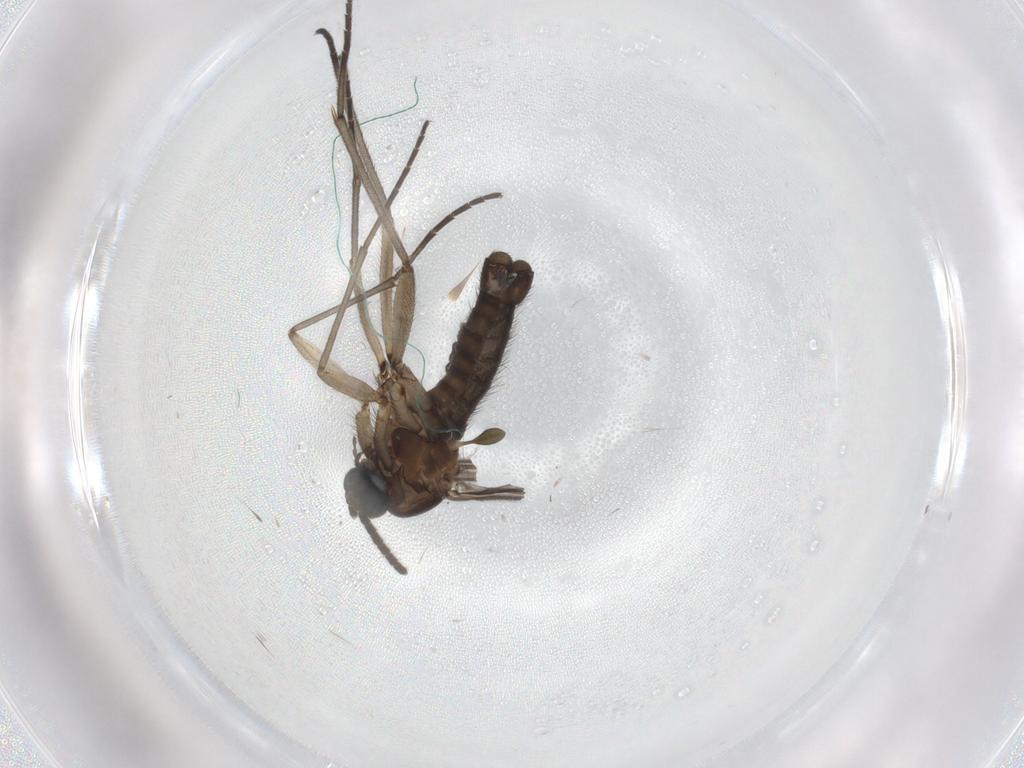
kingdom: Animalia
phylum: Arthropoda
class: Insecta
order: Diptera
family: Sciaridae
